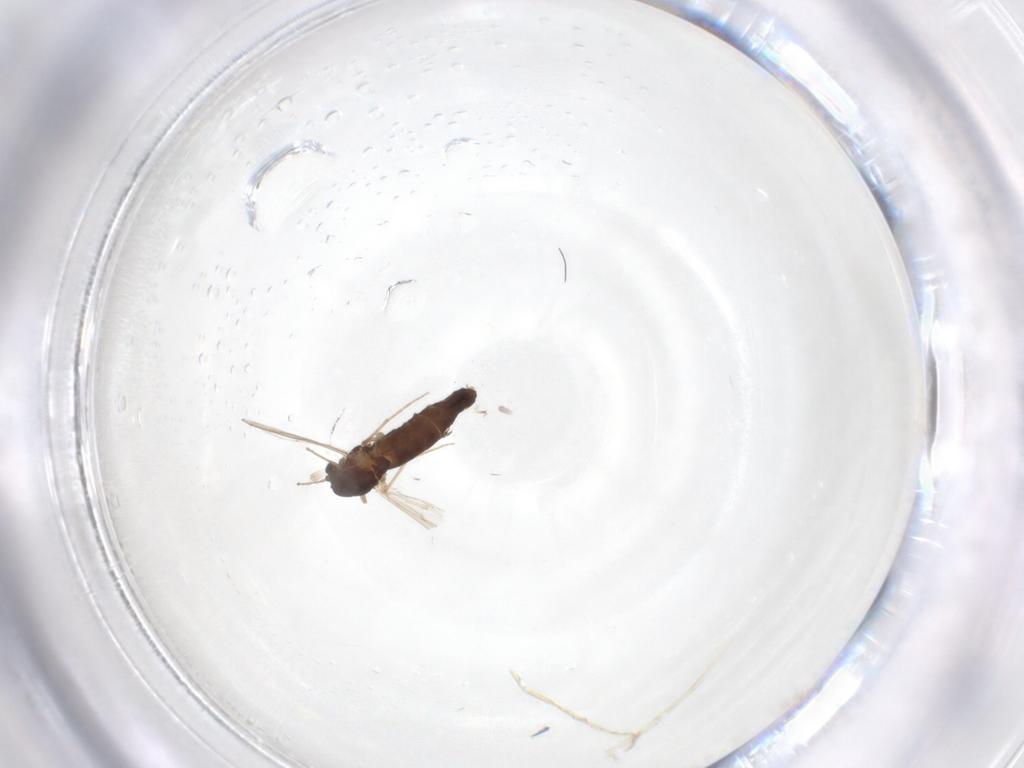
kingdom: Animalia
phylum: Arthropoda
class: Insecta
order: Diptera
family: Chironomidae
